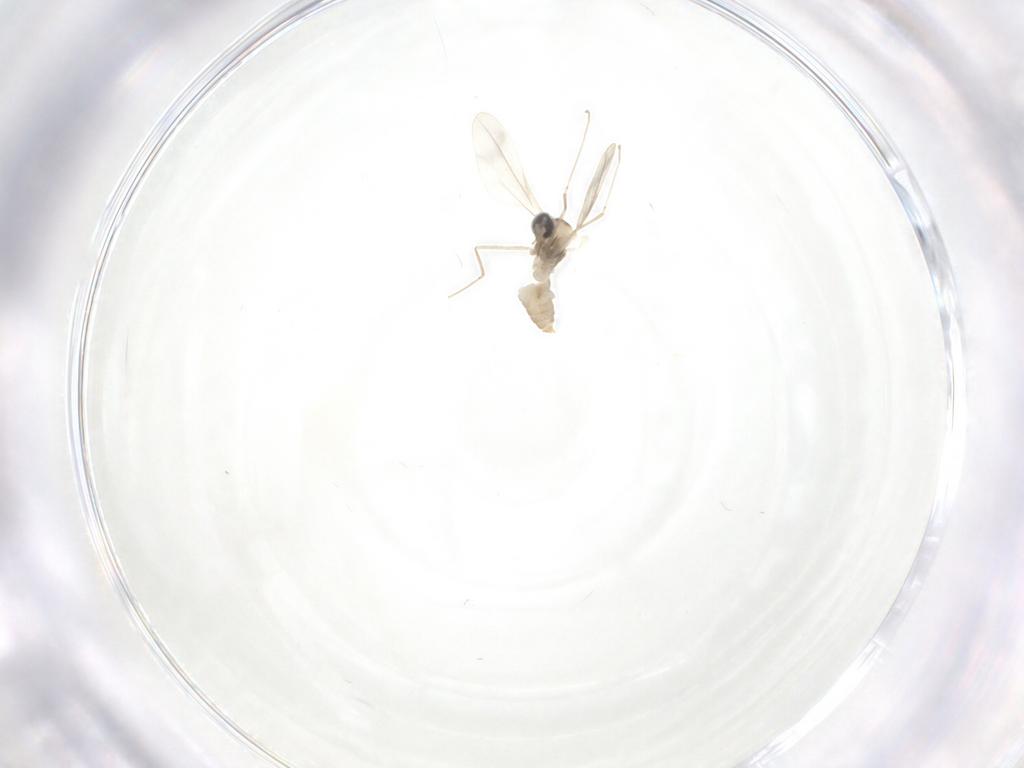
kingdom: Animalia
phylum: Arthropoda
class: Insecta
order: Diptera
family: Cecidomyiidae
